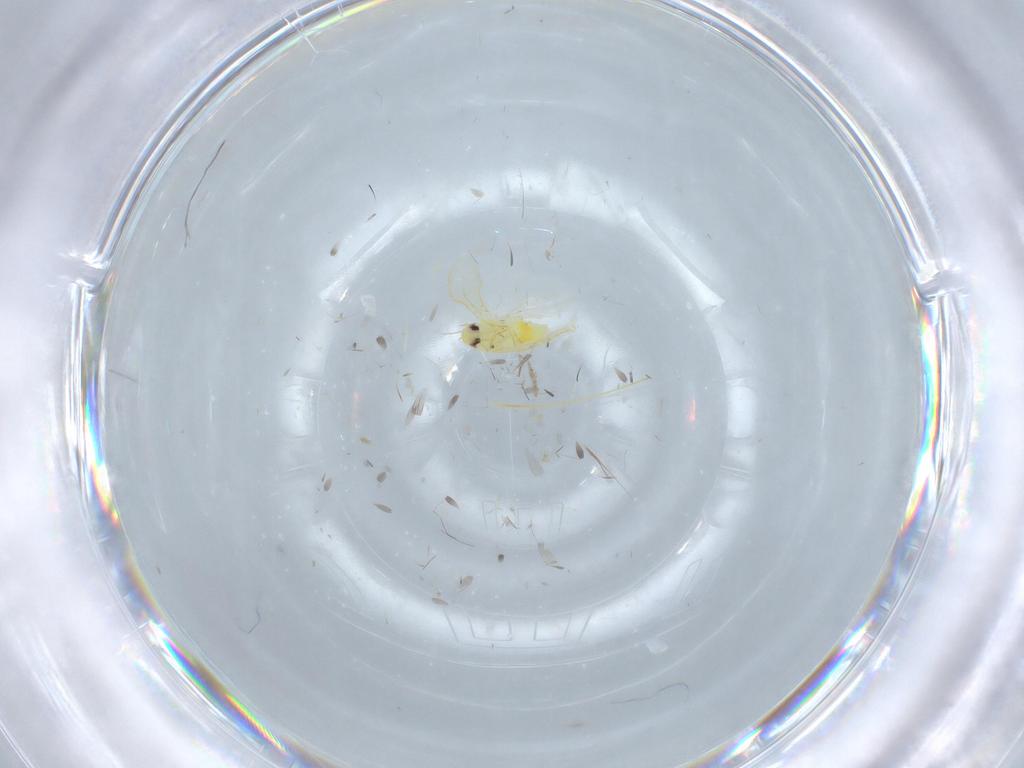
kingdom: Animalia
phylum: Arthropoda
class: Insecta
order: Hemiptera
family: Aleyrodidae
